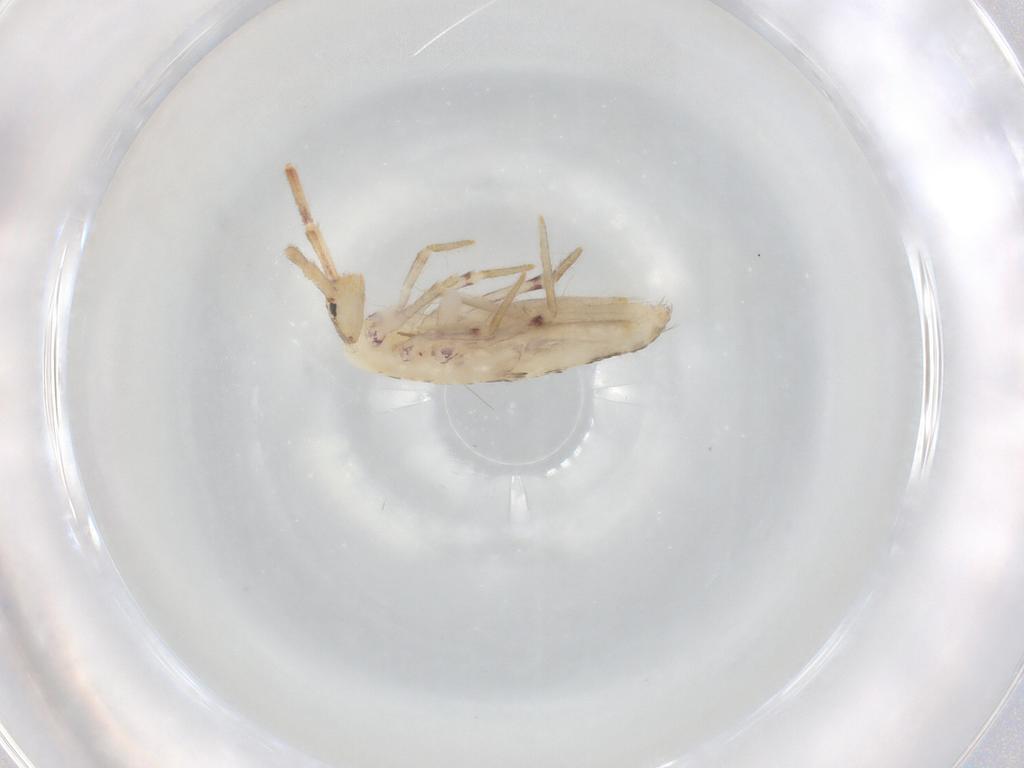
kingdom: Animalia
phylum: Arthropoda
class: Collembola
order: Poduromorpha
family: Hypogastruridae
